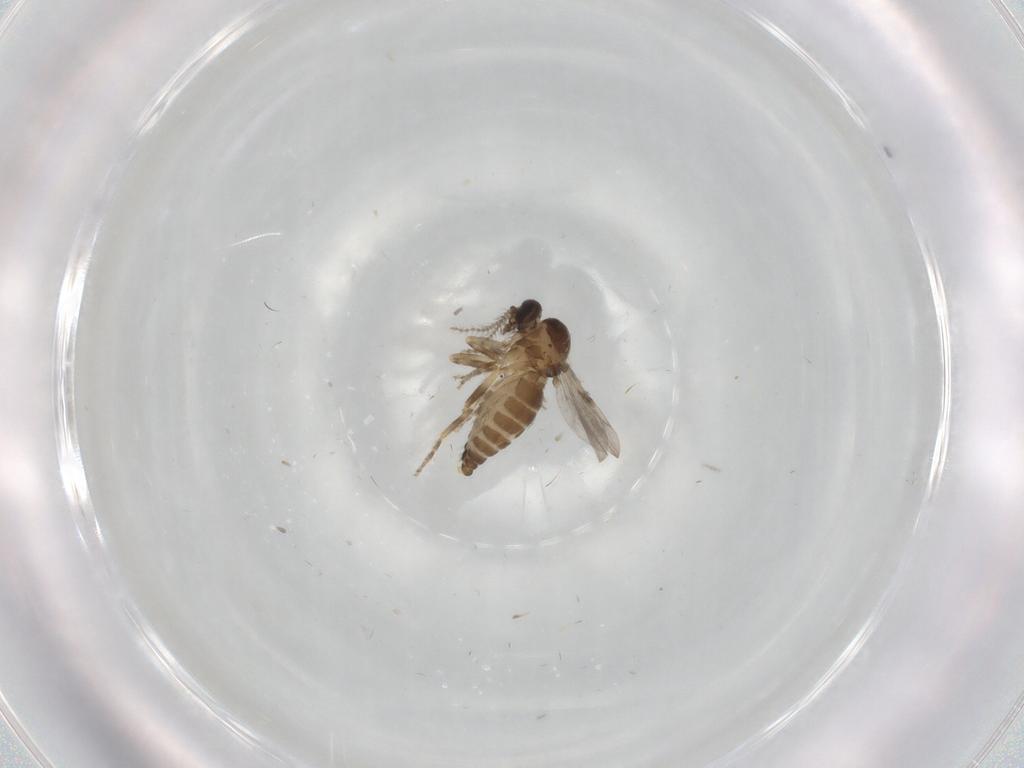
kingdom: Animalia
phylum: Arthropoda
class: Insecta
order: Diptera
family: Ceratopogonidae
